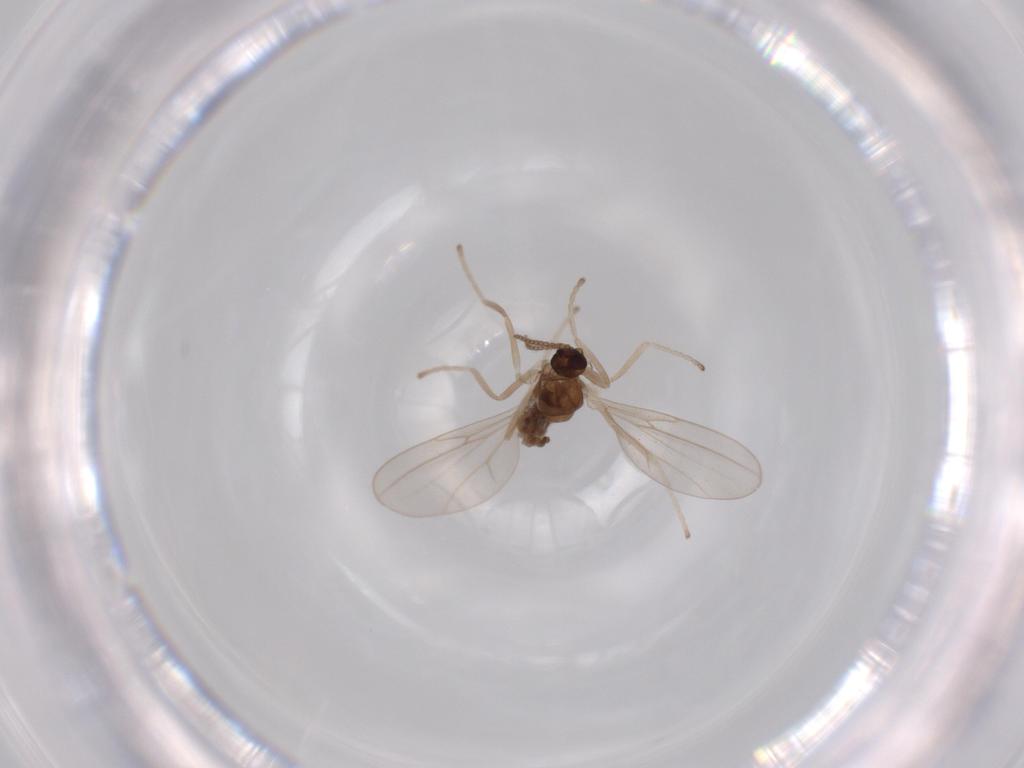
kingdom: Animalia
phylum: Arthropoda
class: Insecta
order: Diptera
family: Cecidomyiidae
